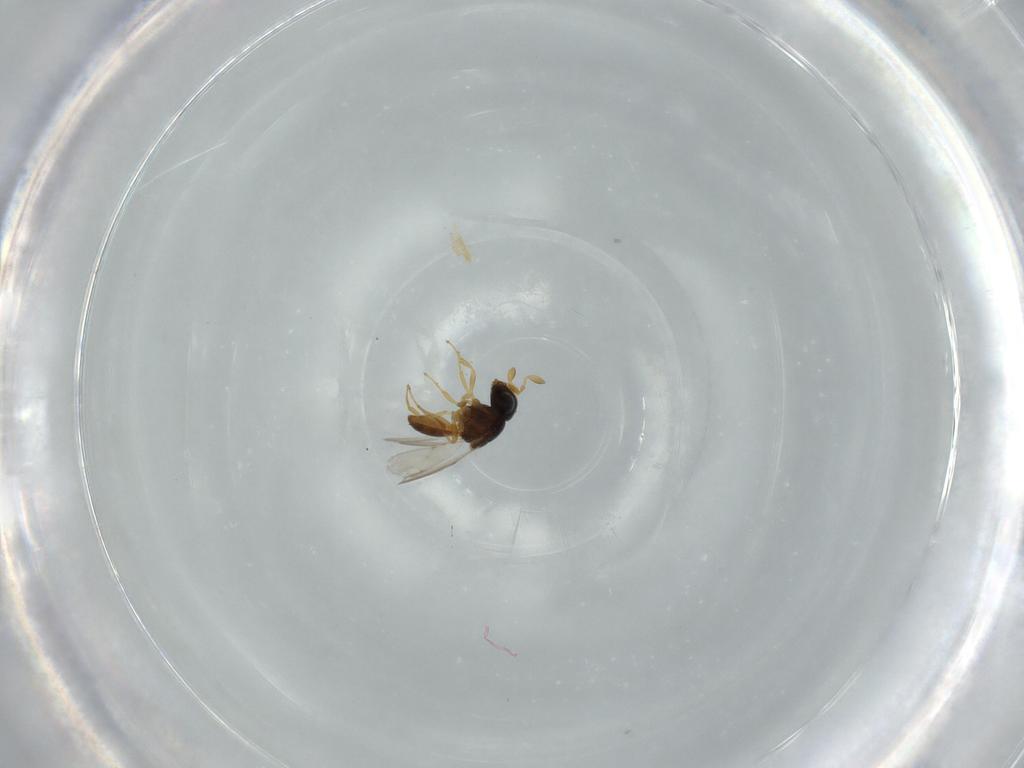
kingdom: Animalia
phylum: Arthropoda
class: Insecta
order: Hymenoptera
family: Scelionidae
